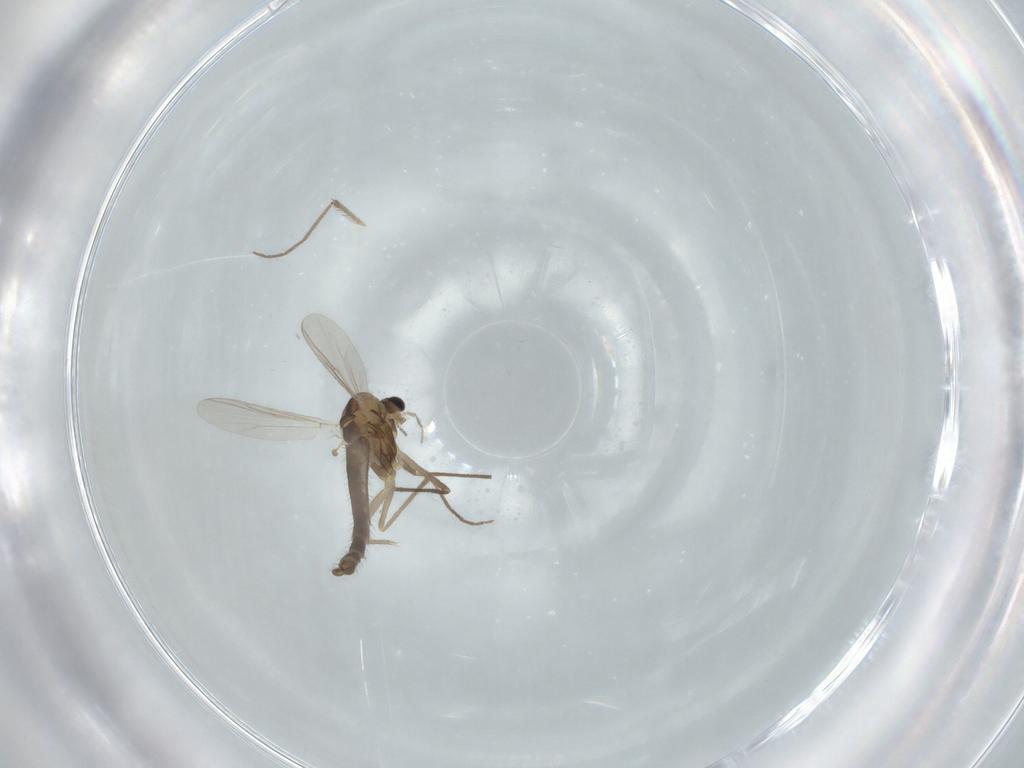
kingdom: Animalia
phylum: Arthropoda
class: Insecta
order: Diptera
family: Chironomidae
